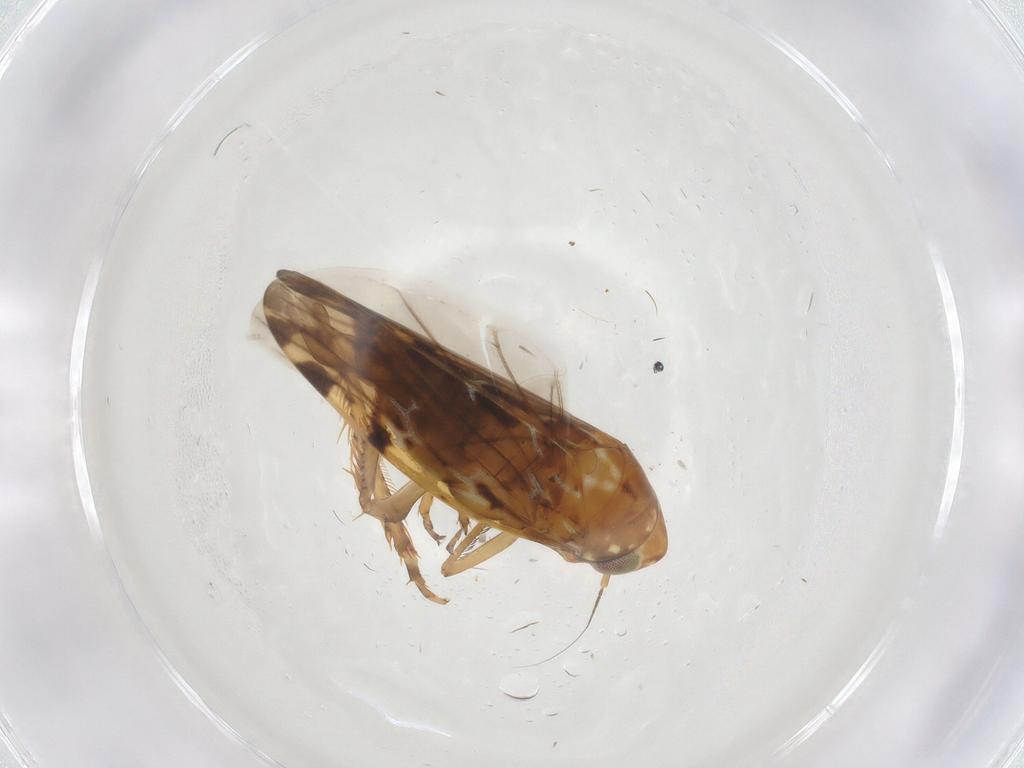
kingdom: Animalia
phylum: Arthropoda
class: Insecta
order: Hemiptera
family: Cicadellidae
